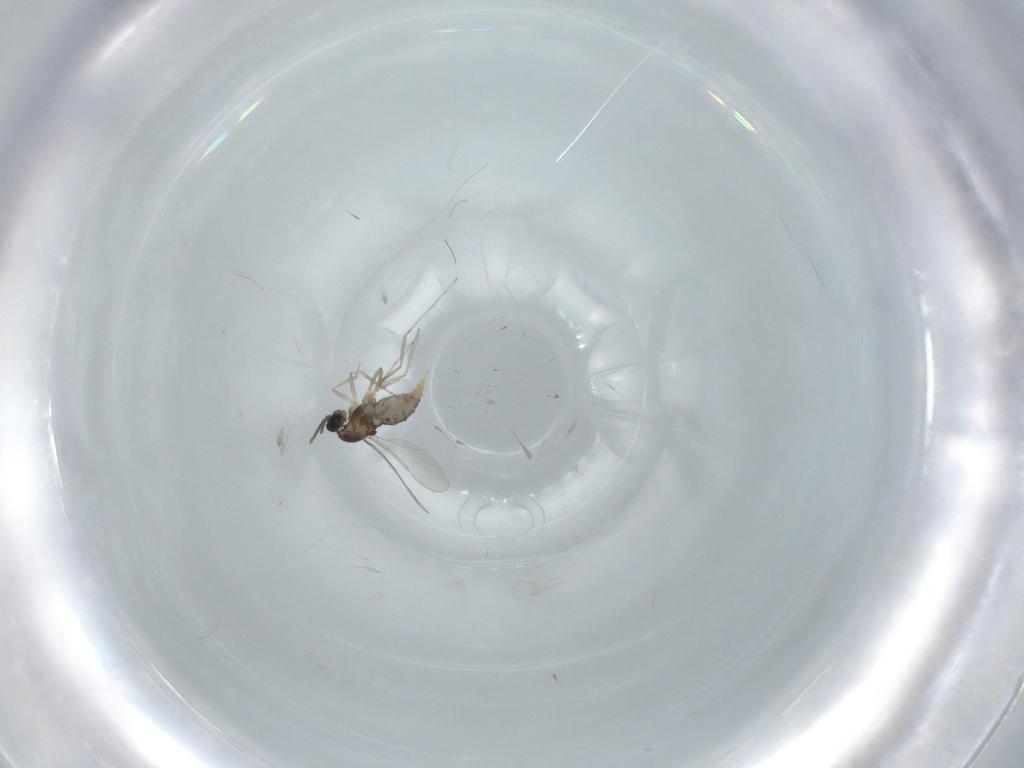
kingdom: Animalia
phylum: Arthropoda
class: Insecta
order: Diptera
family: Cecidomyiidae
